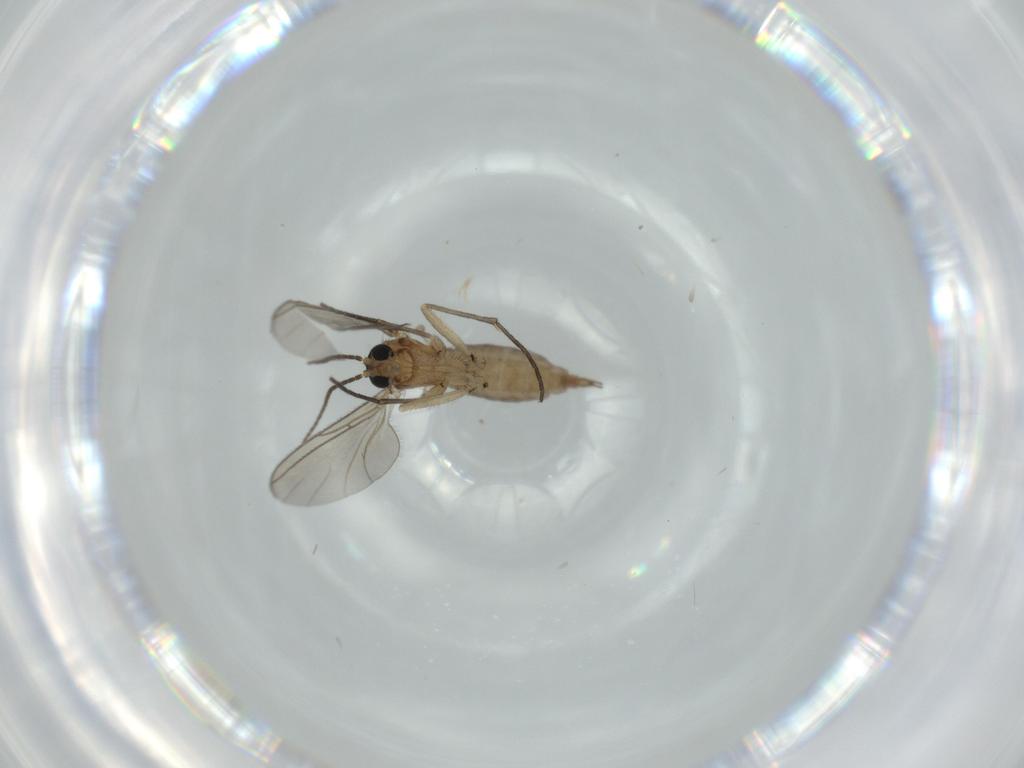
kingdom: Animalia
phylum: Arthropoda
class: Insecta
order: Diptera
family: Sciaridae
